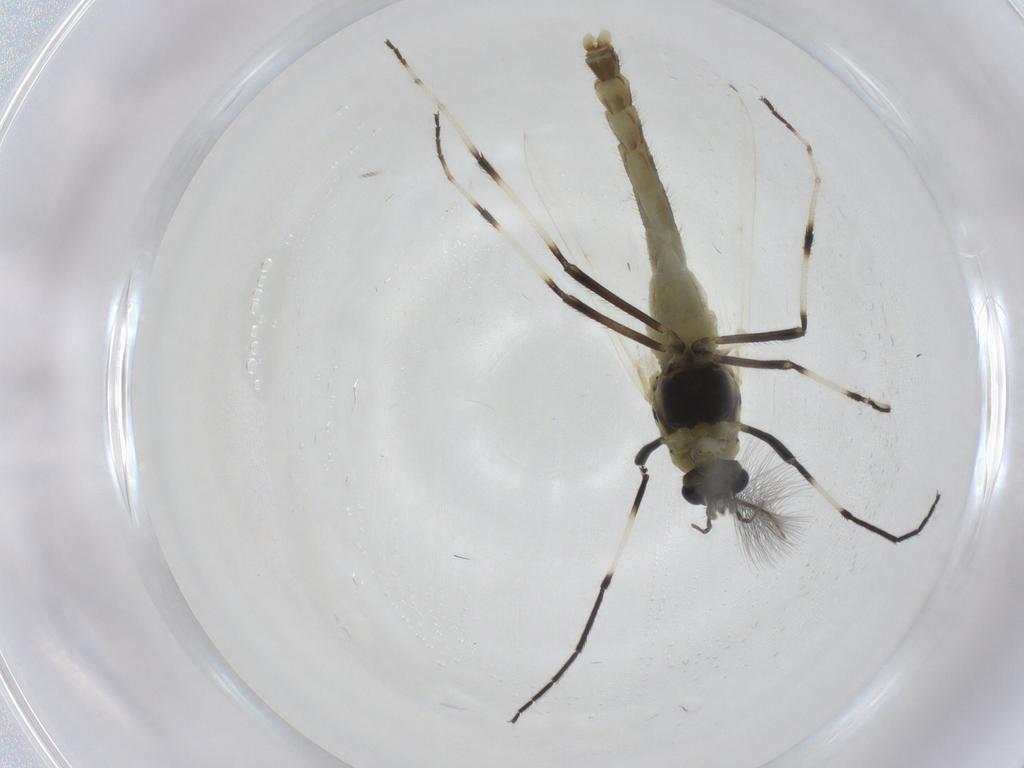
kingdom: Animalia
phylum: Arthropoda
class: Insecta
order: Diptera
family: Chironomidae
